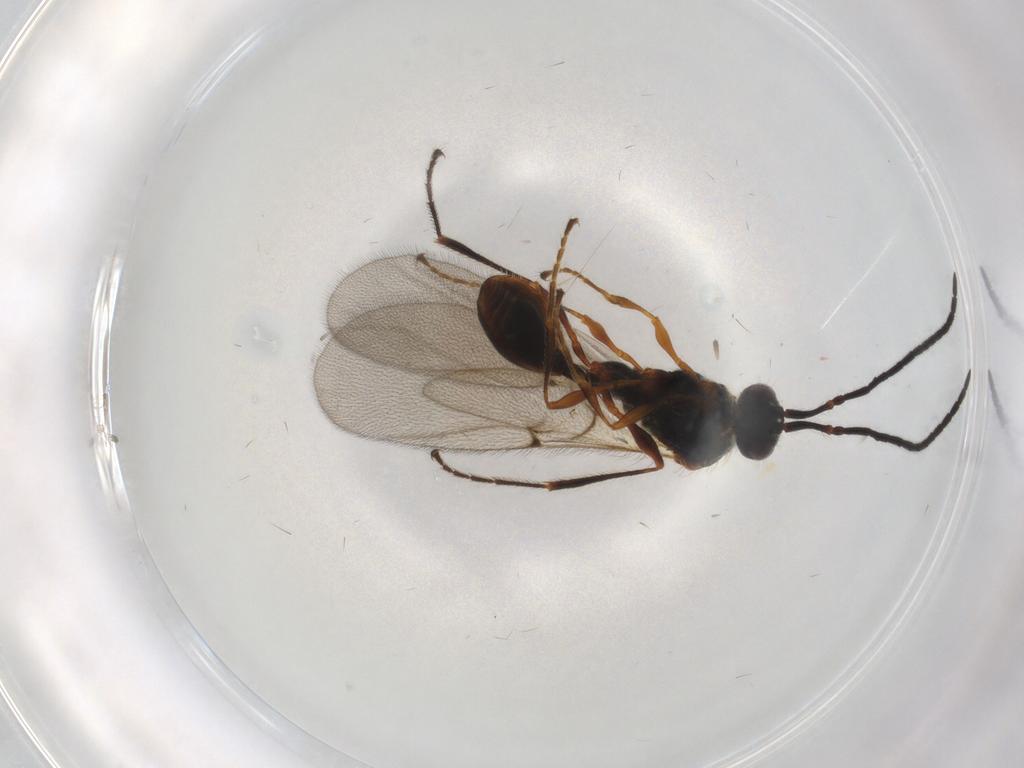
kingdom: Animalia
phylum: Arthropoda
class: Insecta
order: Hymenoptera
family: Diapriidae
